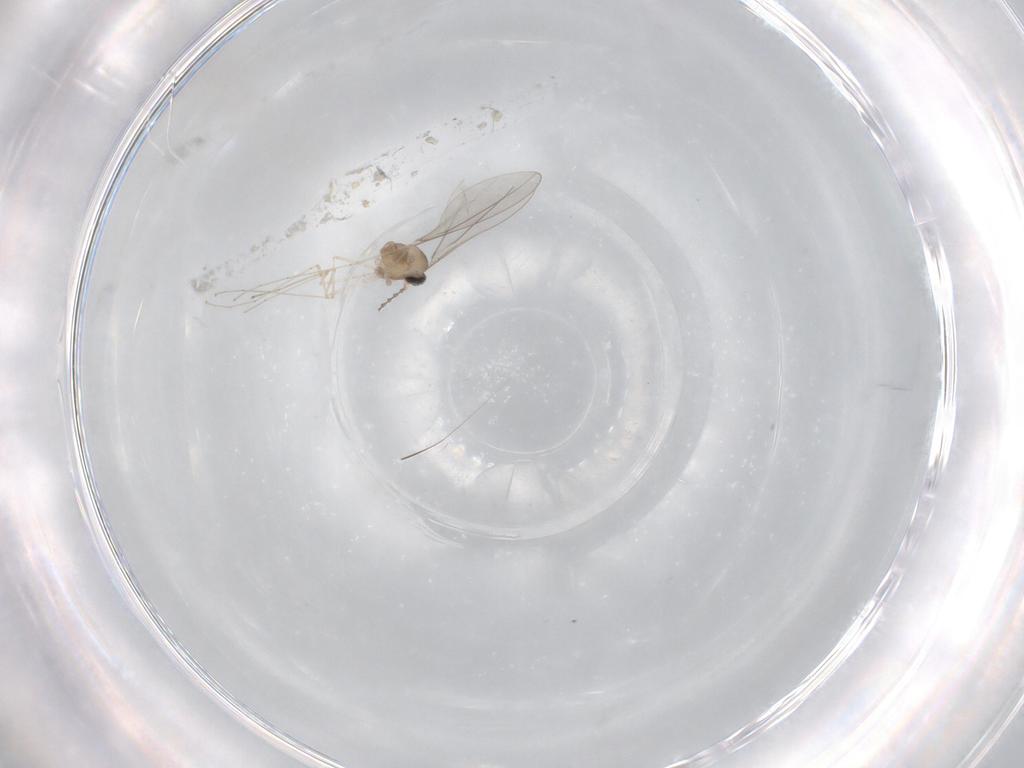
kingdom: Animalia
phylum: Arthropoda
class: Insecta
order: Diptera
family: Cecidomyiidae
